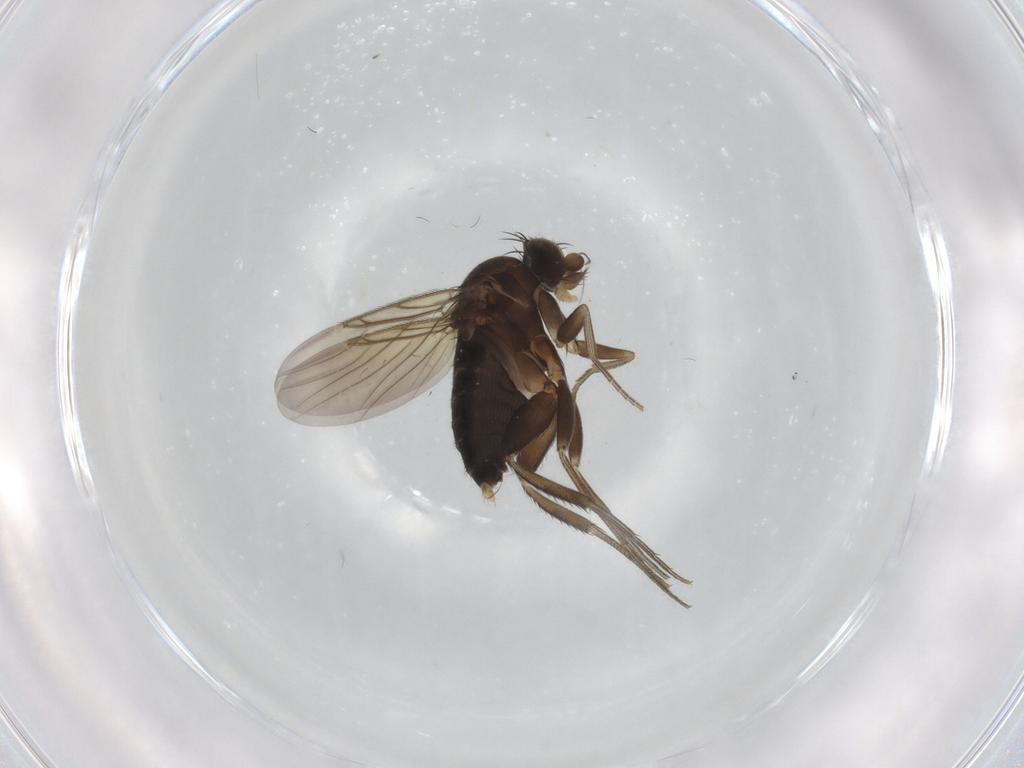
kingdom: Animalia
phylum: Arthropoda
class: Insecta
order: Diptera
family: Phoridae
